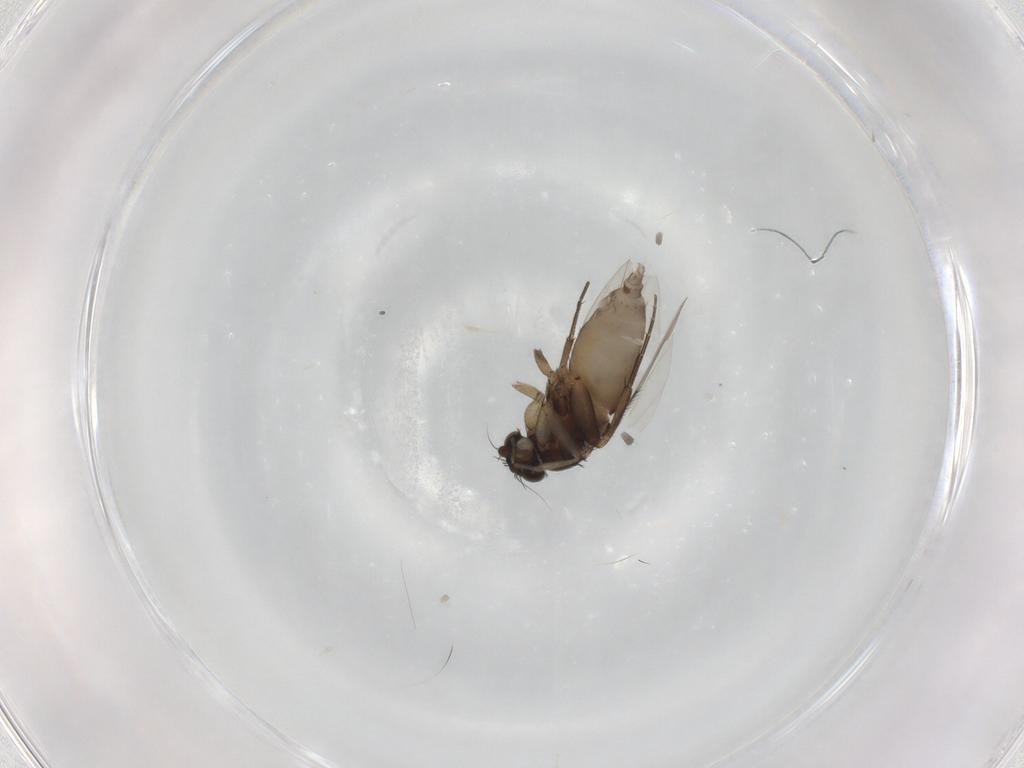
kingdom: Animalia
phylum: Arthropoda
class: Insecta
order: Diptera
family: Phoridae
